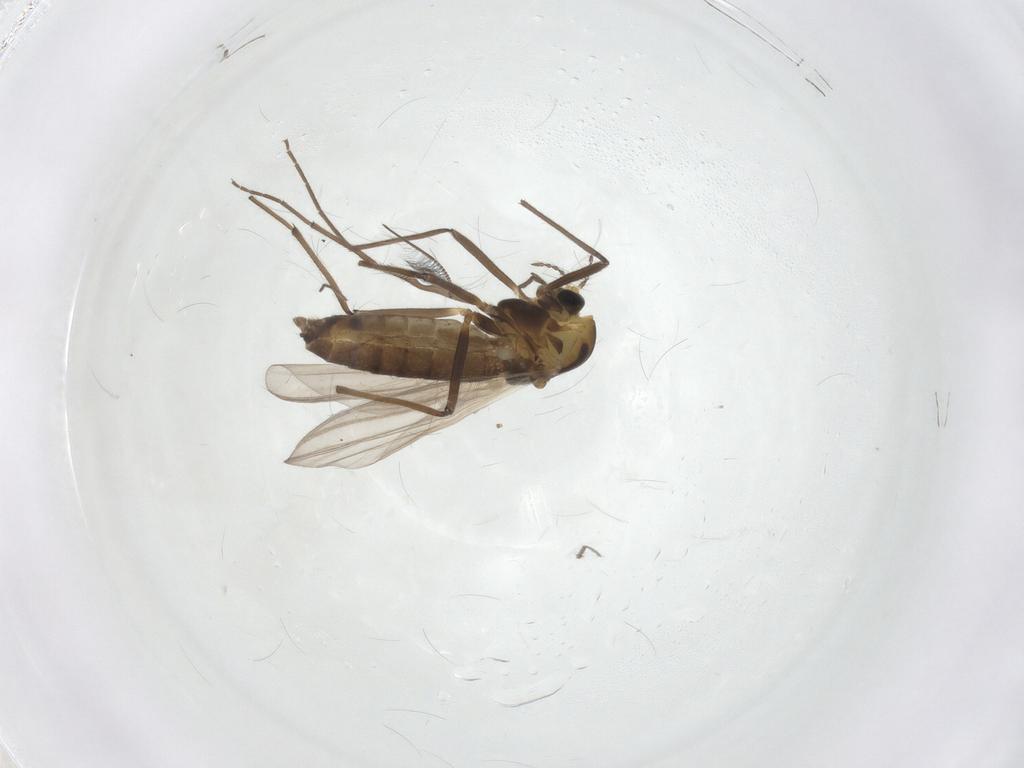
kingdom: Animalia
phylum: Arthropoda
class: Insecta
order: Diptera
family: Chironomidae
